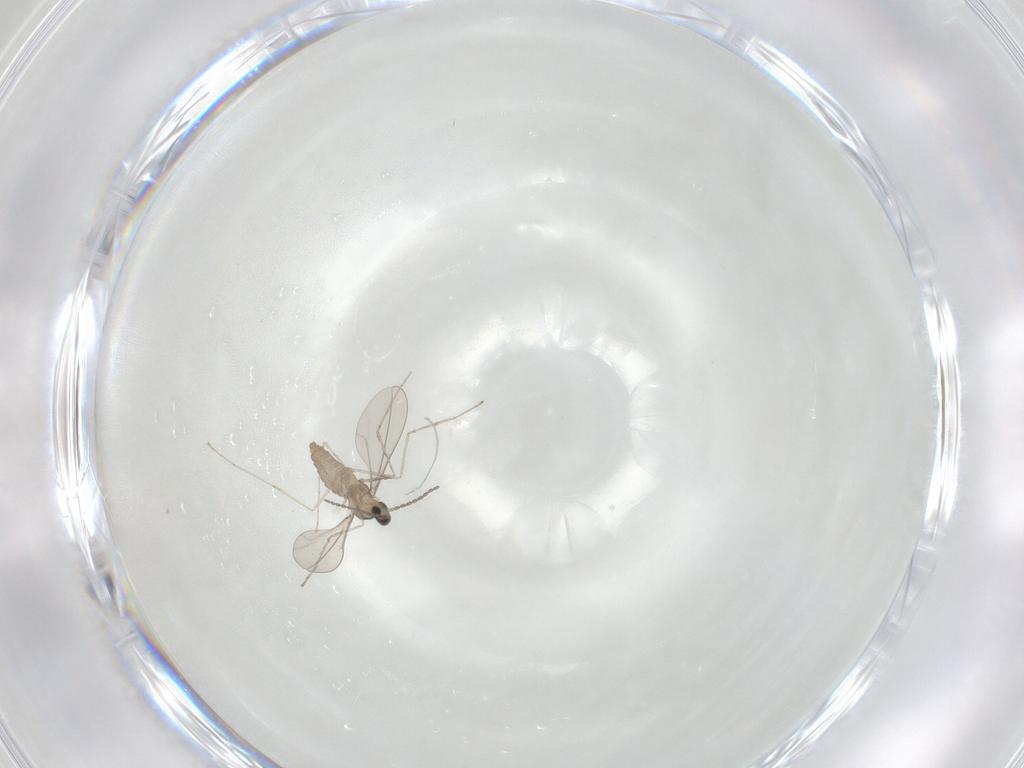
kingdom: Animalia
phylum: Arthropoda
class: Insecta
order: Diptera
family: Cecidomyiidae
